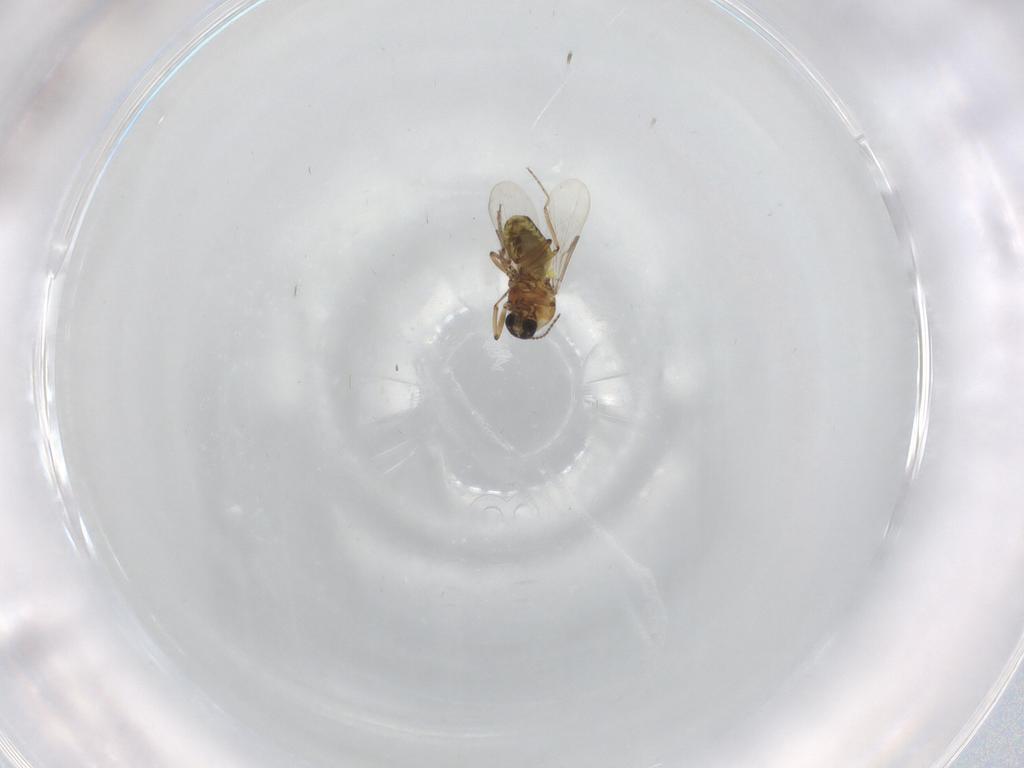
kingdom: Animalia
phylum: Arthropoda
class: Insecta
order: Diptera
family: Ceratopogonidae
